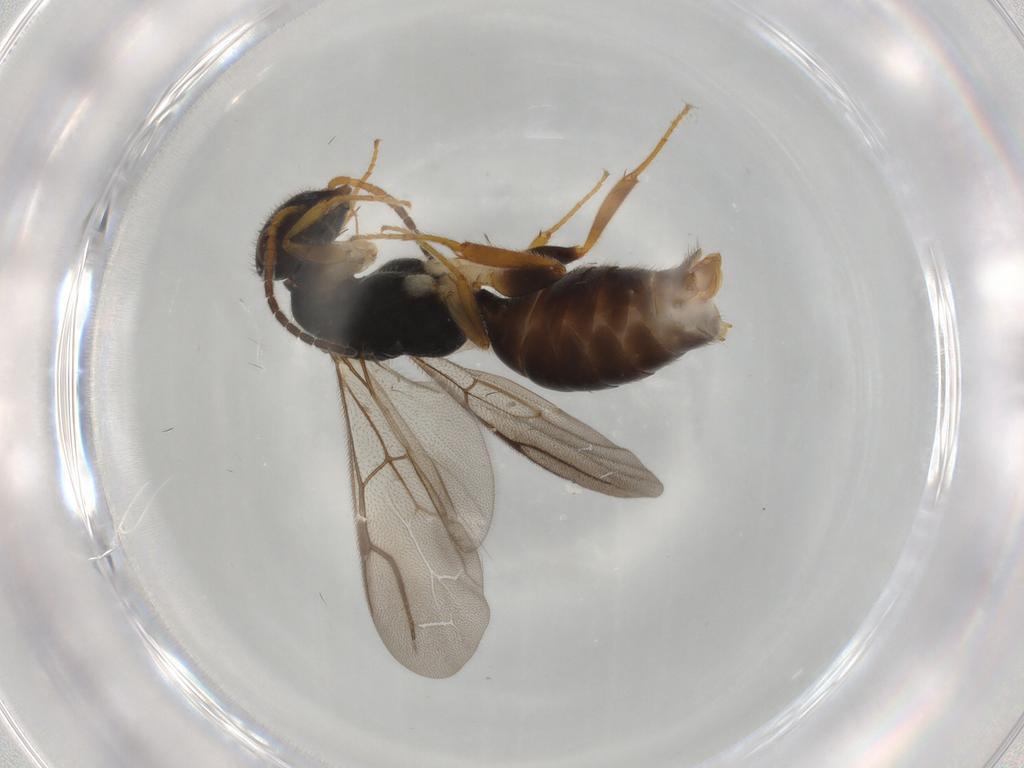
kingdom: Animalia
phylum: Arthropoda
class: Insecta
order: Hymenoptera
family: Bethylidae
